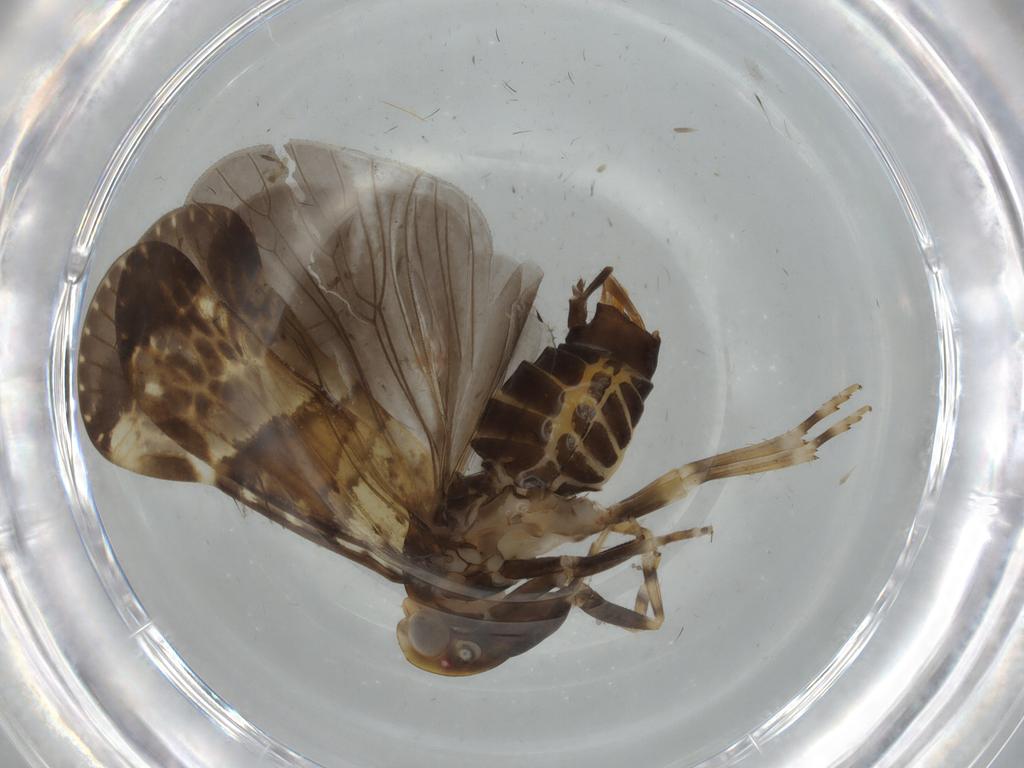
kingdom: Animalia
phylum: Arthropoda
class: Insecta
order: Hemiptera
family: Cixiidae
